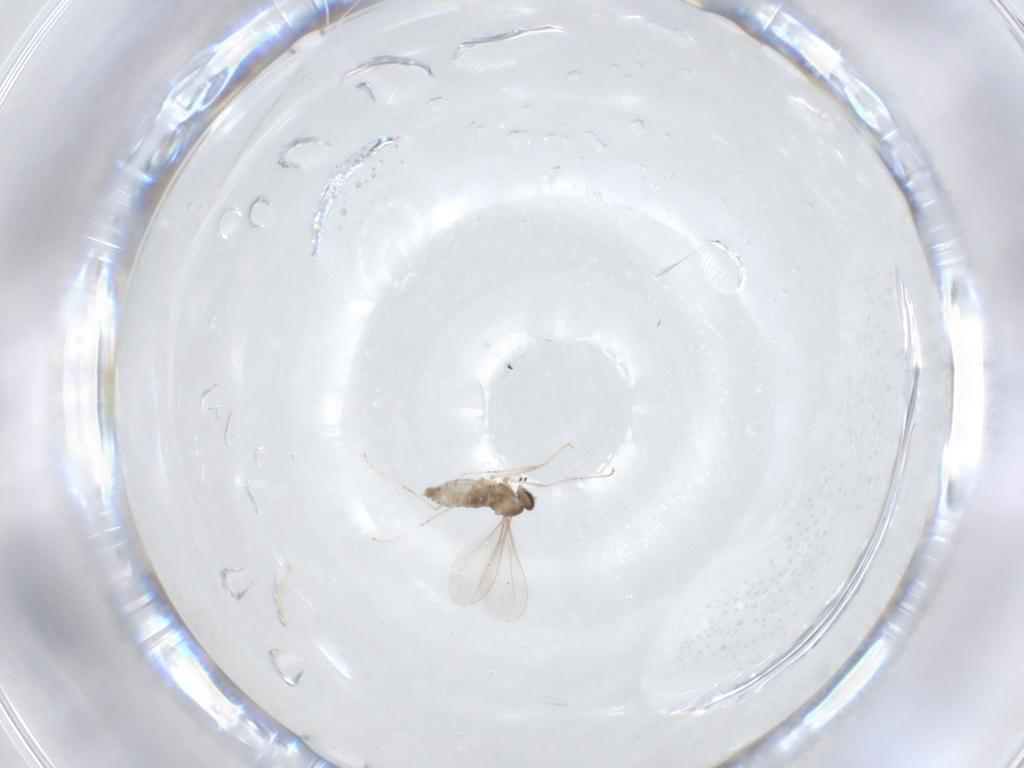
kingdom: Animalia
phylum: Arthropoda
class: Insecta
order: Diptera
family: Cecidomyiidae
